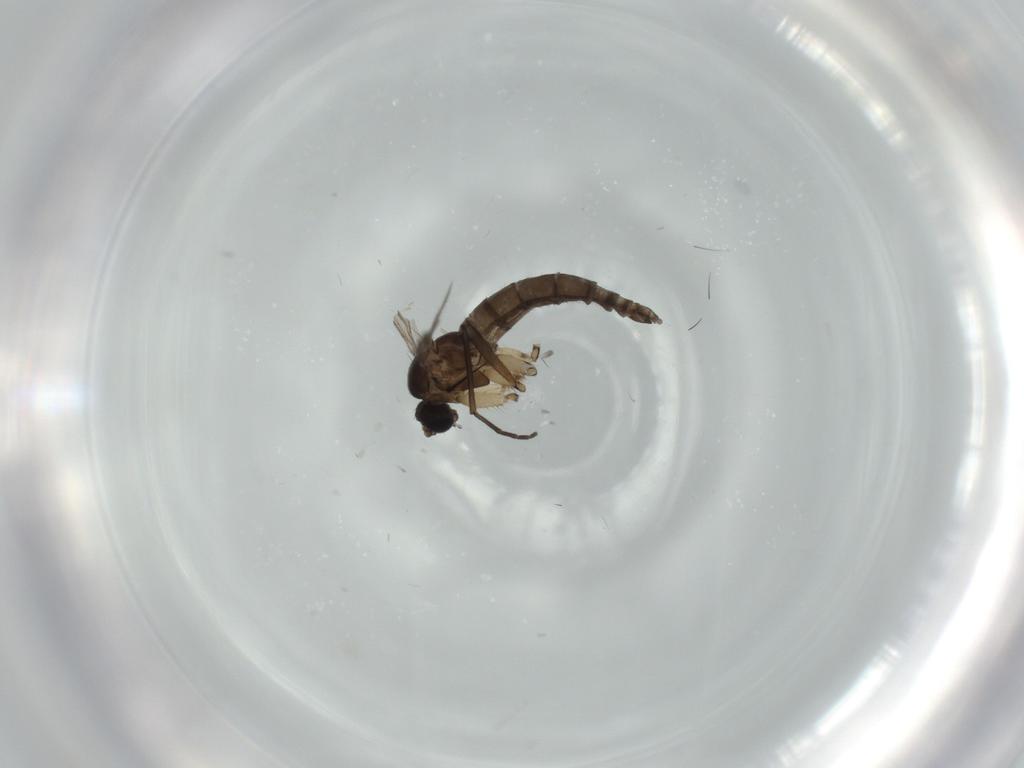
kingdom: Animalia
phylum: Arthropoda
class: Insecta
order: Diptera
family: Sciaridae
